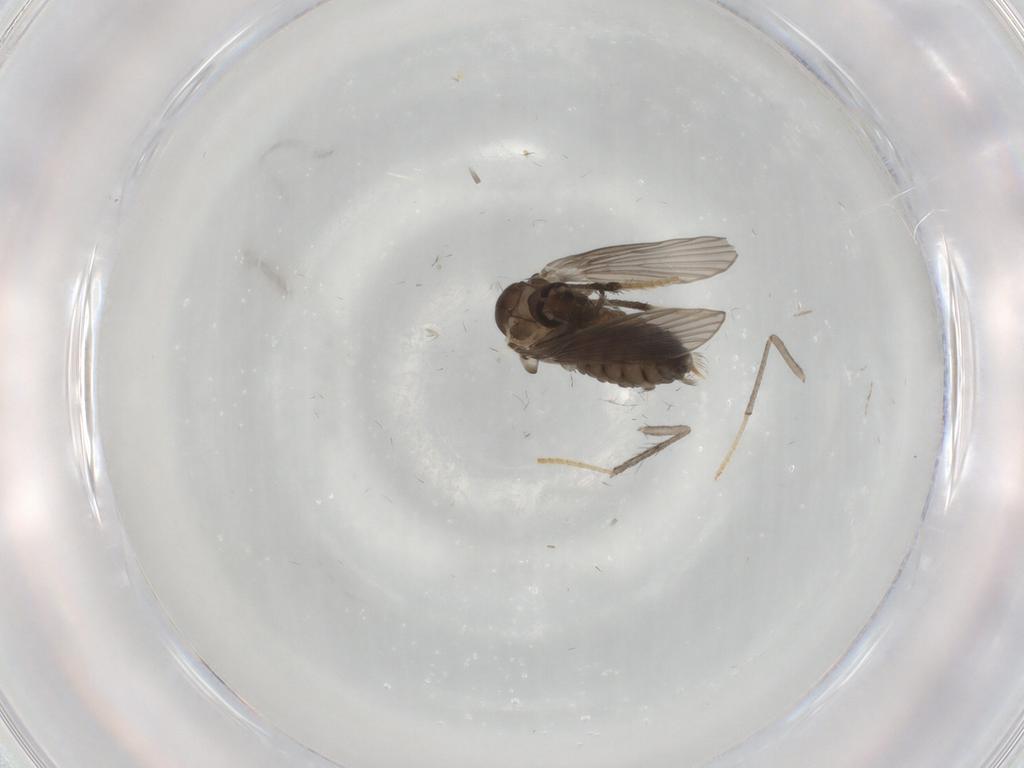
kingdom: Animalia
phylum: Arthropoda
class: Insecta
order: Diptera
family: Psychodidae
